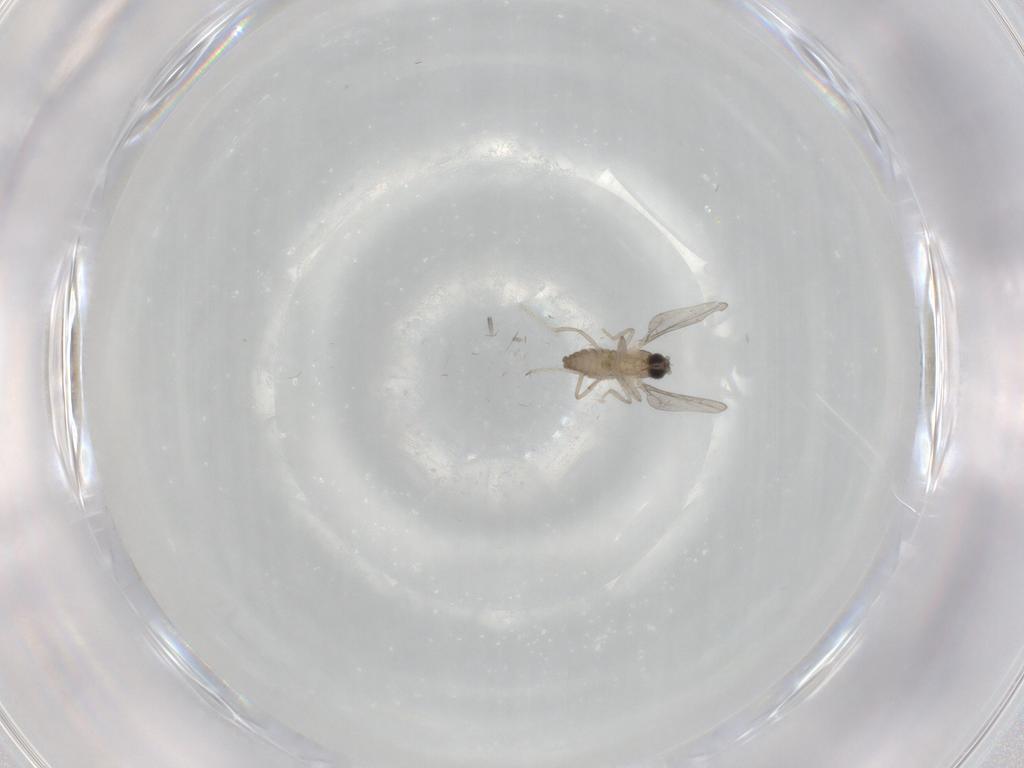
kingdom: Animalia
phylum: Arthropoda
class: Insecta
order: Diptera
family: Cecidomyiidae
